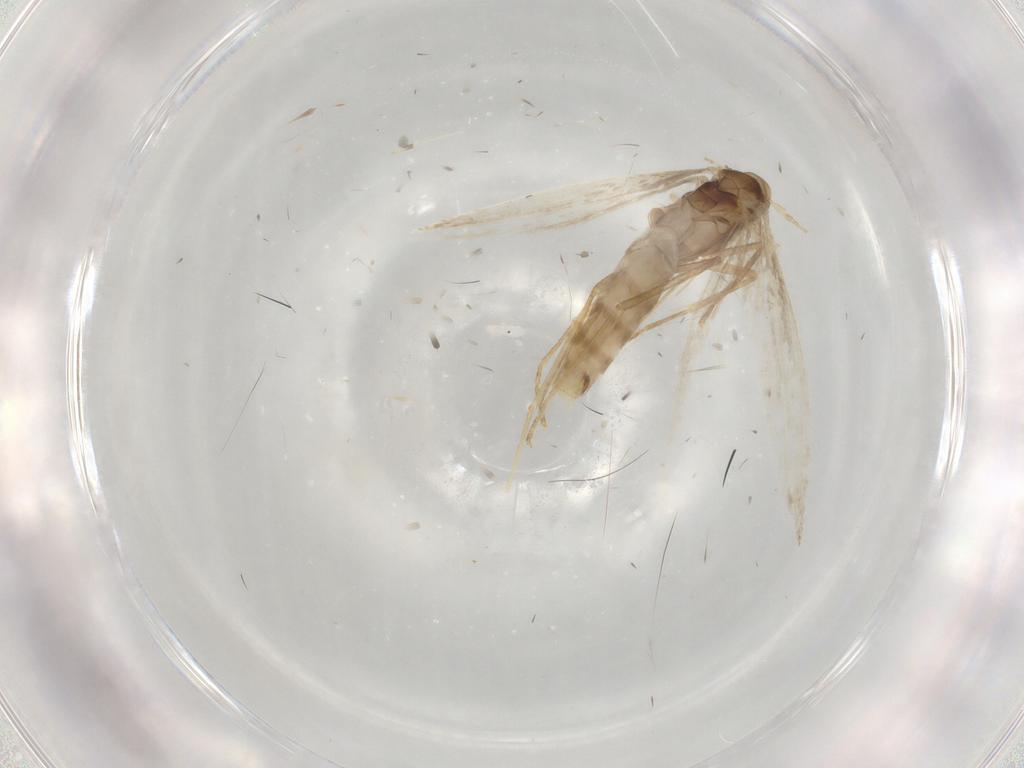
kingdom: Animalia
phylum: Arthropoda
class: Insecta
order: Lepidoptera
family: Gracillariidae
